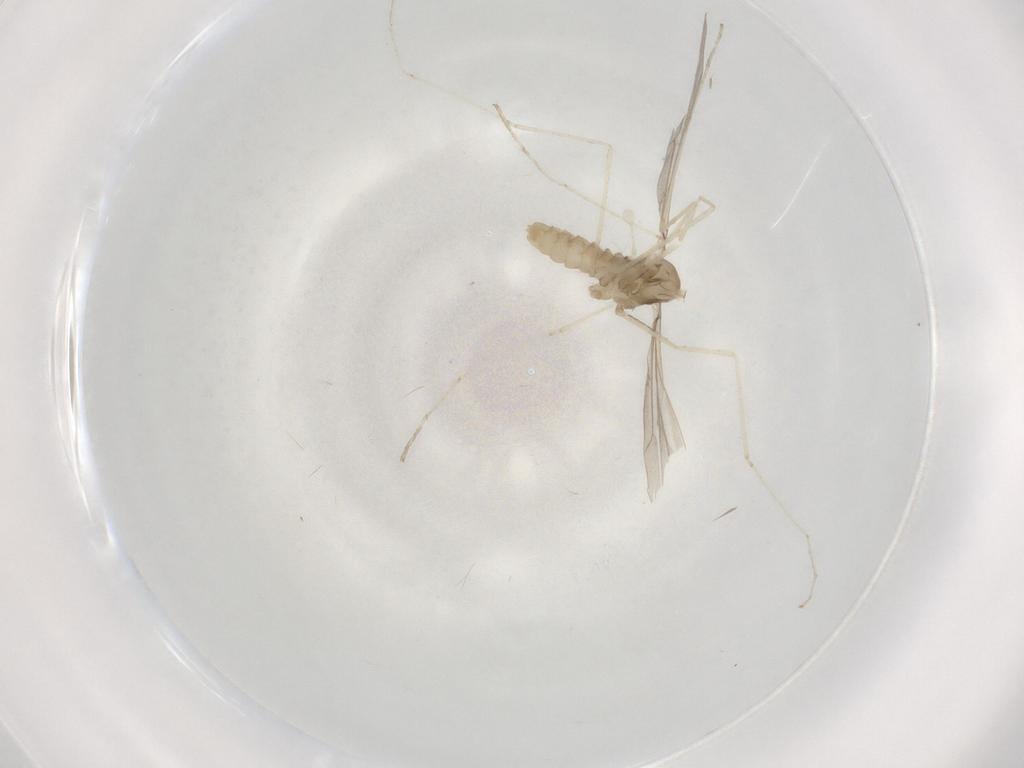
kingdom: Animalia
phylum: Arthropoda
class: Insecta
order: Diptera
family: Cecidomyiidae
